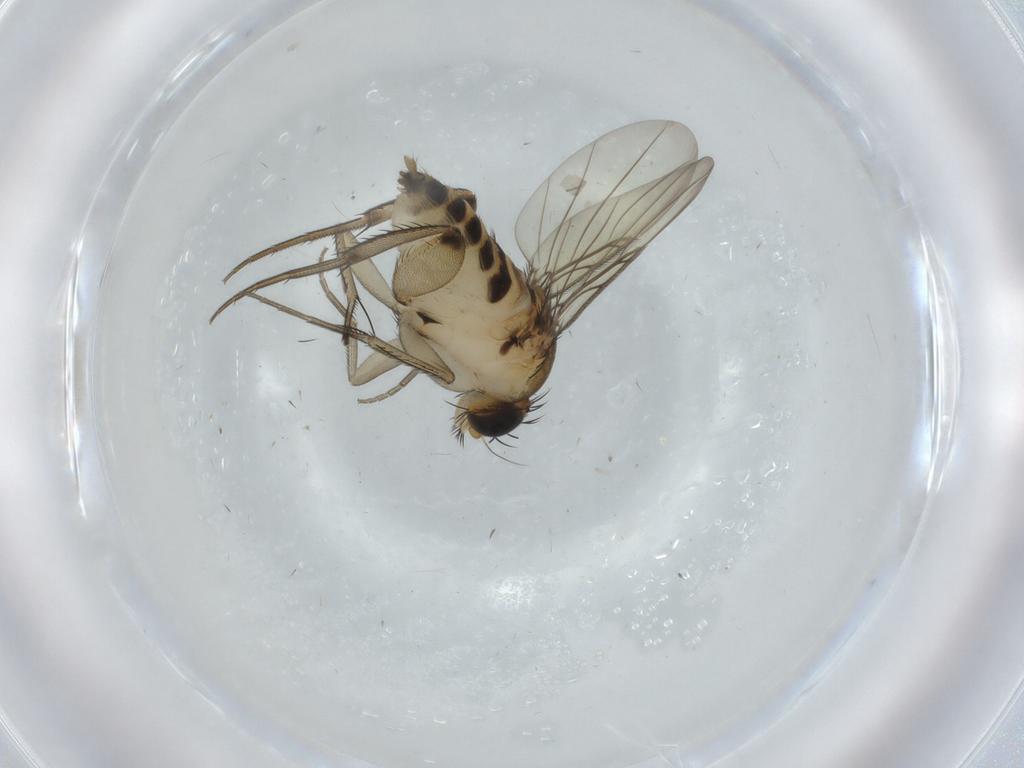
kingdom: Animalia
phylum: Arthropoda
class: Insecta
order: Diptera
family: Phoridae
